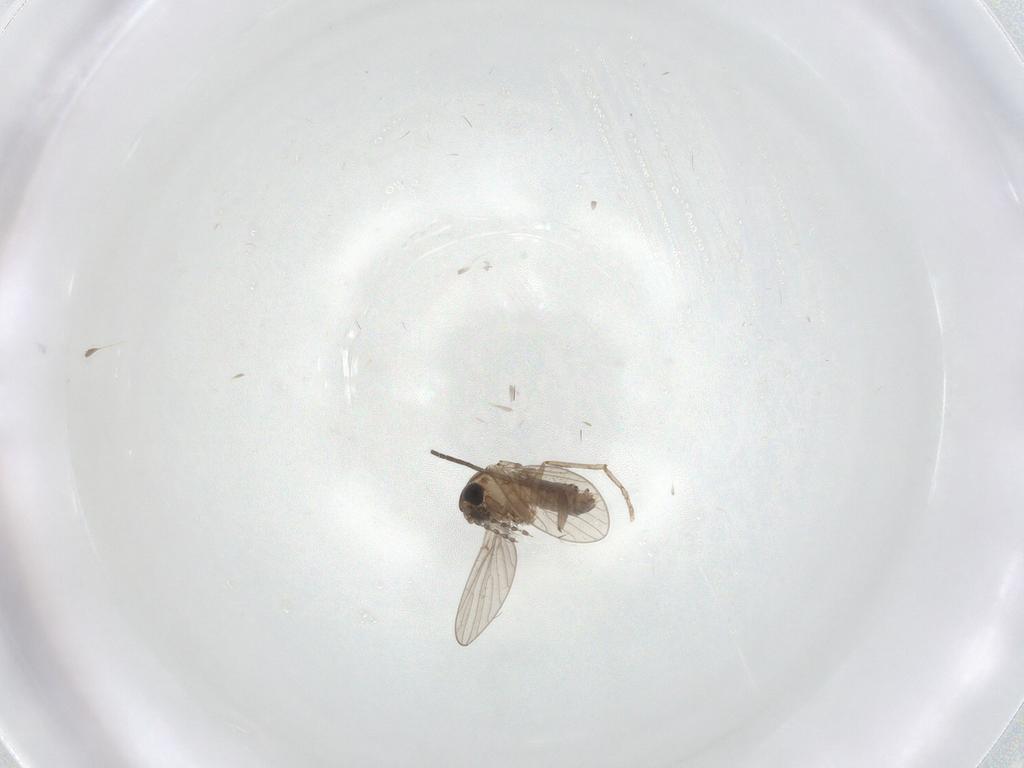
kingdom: Animalia
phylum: Arthropoda
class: Insecta
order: Diptera
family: Sciaridae
